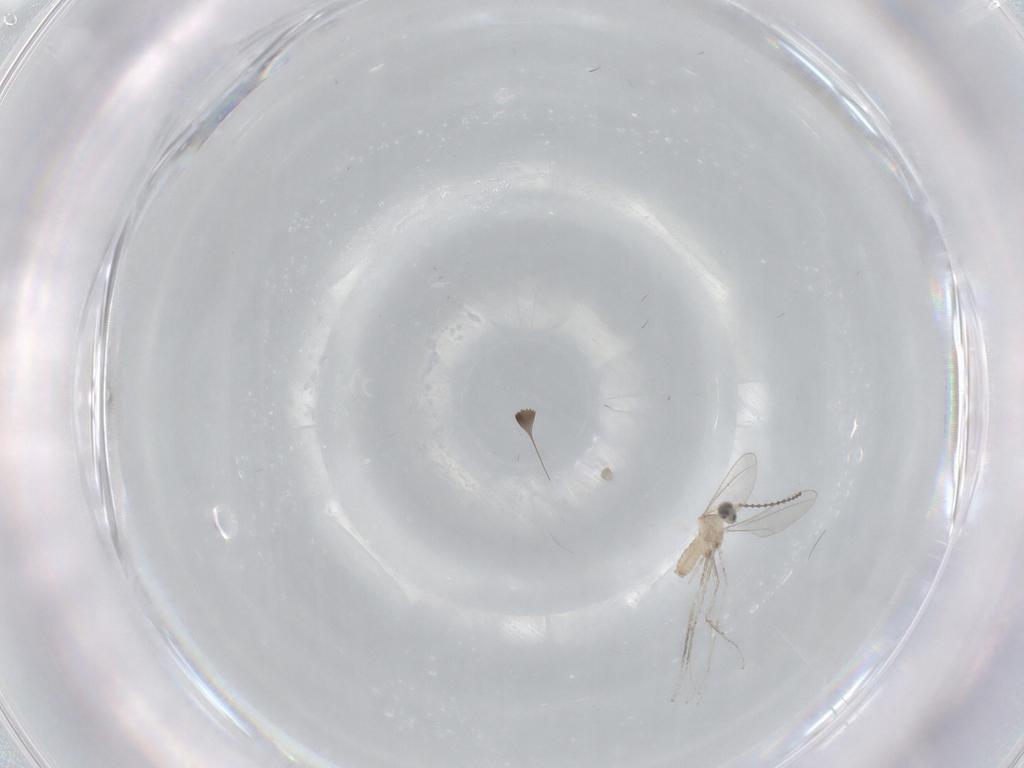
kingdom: Animalia
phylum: Arthropoda
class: Insecta
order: Diptera
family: Cecidomyiidae
